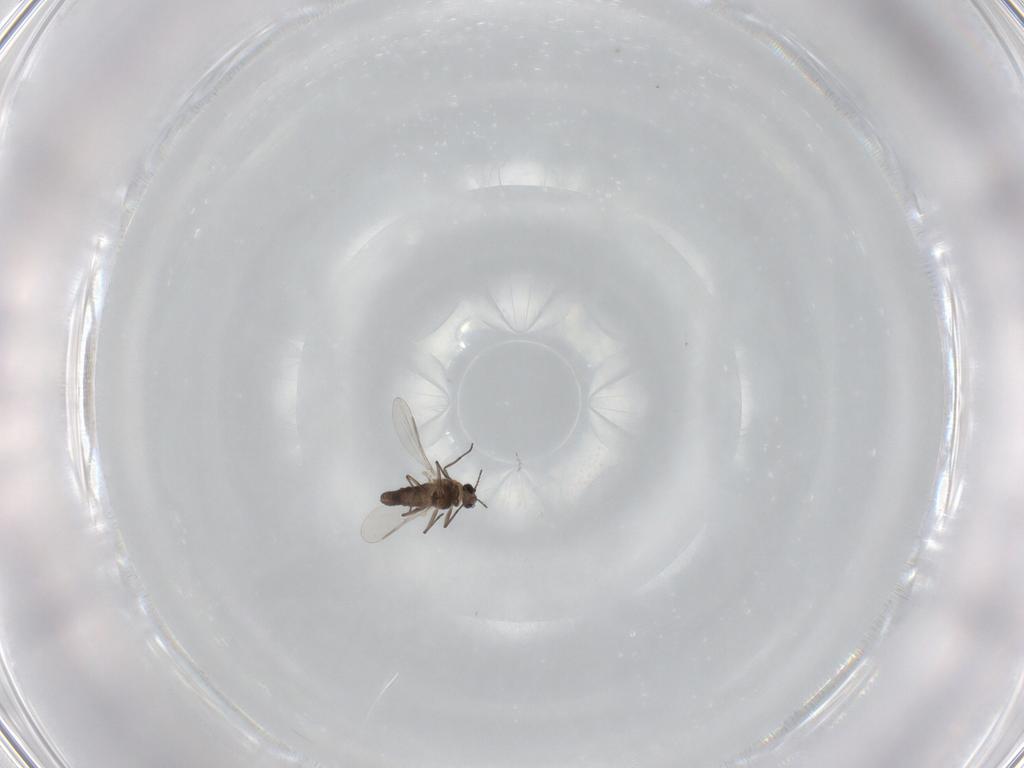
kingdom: Animalia
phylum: Arthropoda
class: Insecta
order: Diptera
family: Chironomidae
